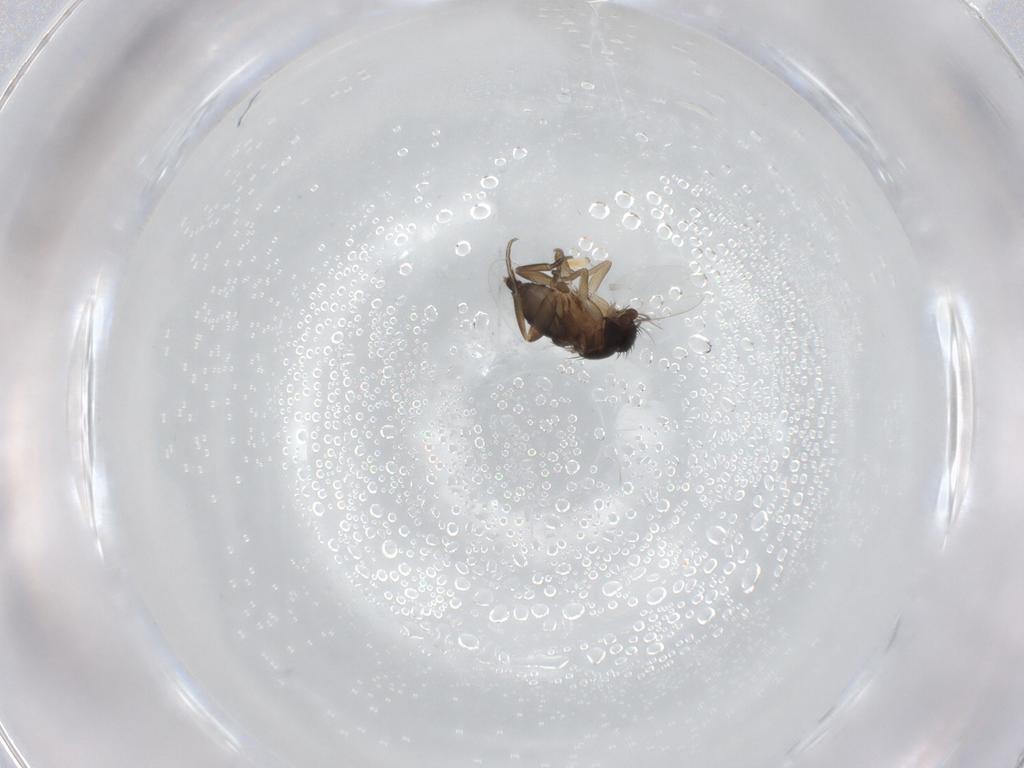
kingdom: Animalia
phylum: Arthropoda
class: Insecta
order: Diptera
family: Phoridae
